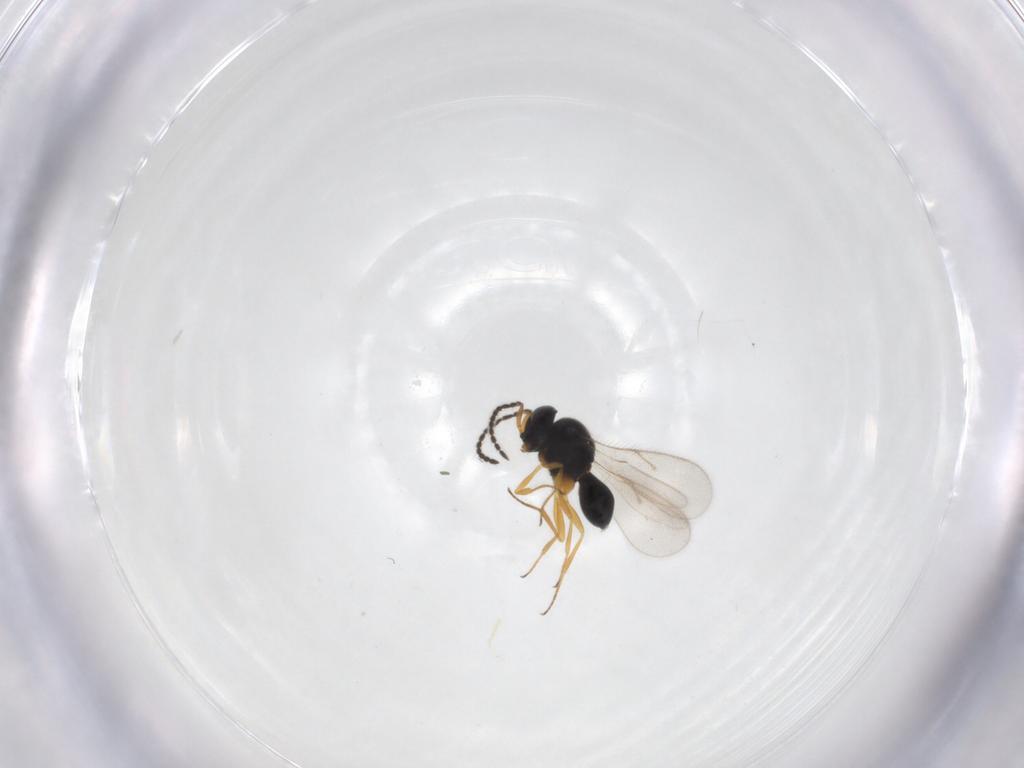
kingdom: Animalia
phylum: Arthropoda
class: Insecta
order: Hymenoptera
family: Scelionidae
